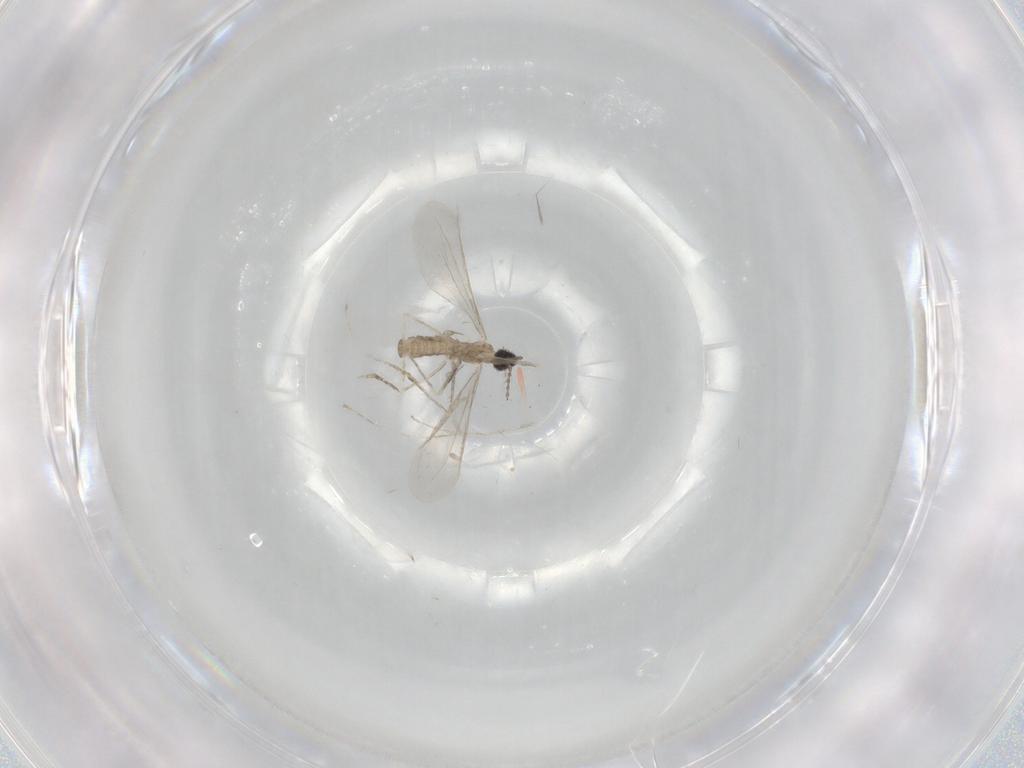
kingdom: Animalia
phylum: Arthropoda
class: Insecta
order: Diptera
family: Cecidomyiidae
